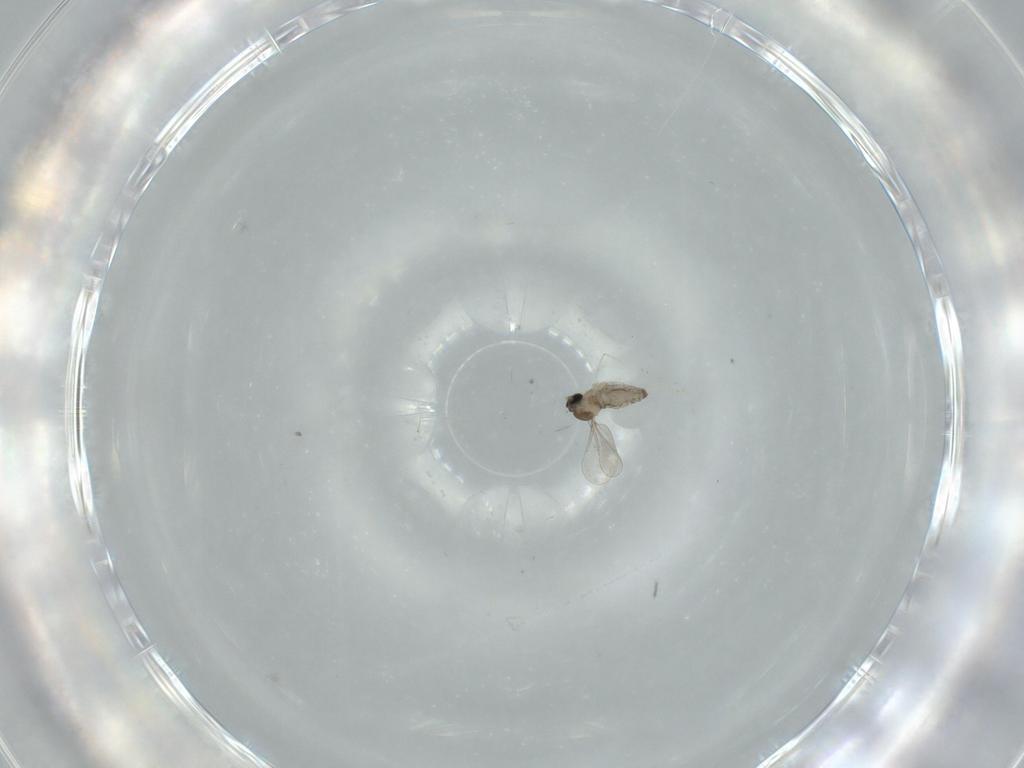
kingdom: Animalia
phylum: Arthropoda
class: Insecta
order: Diptera
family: Cecidomyiidae
